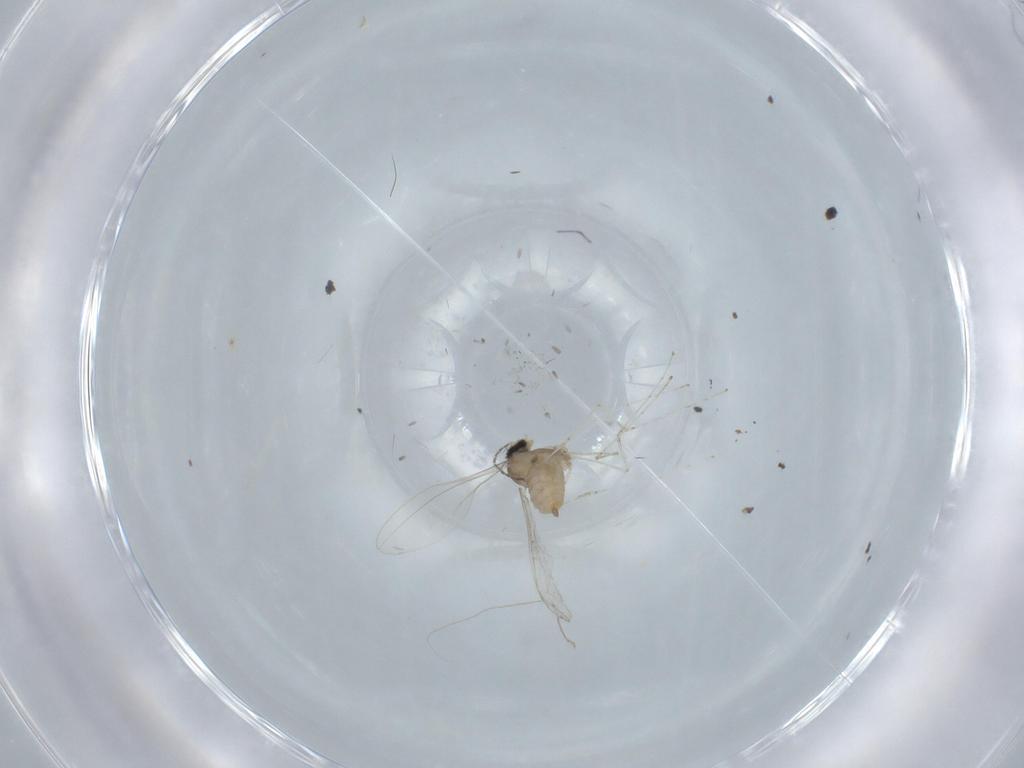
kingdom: Animalia
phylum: Arthropoda
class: Insecta
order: Diptera
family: Cecidomyiidae
